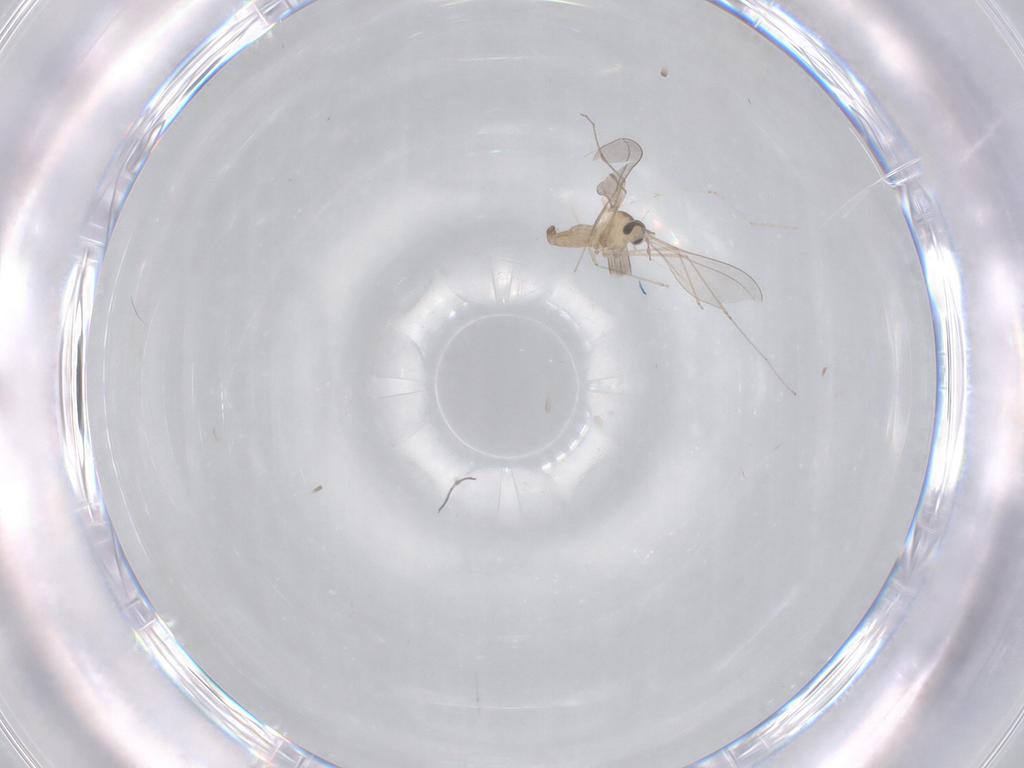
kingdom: Animalia
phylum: Arthropoda
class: Insecta
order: Diptera
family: Cecidomyiidae
